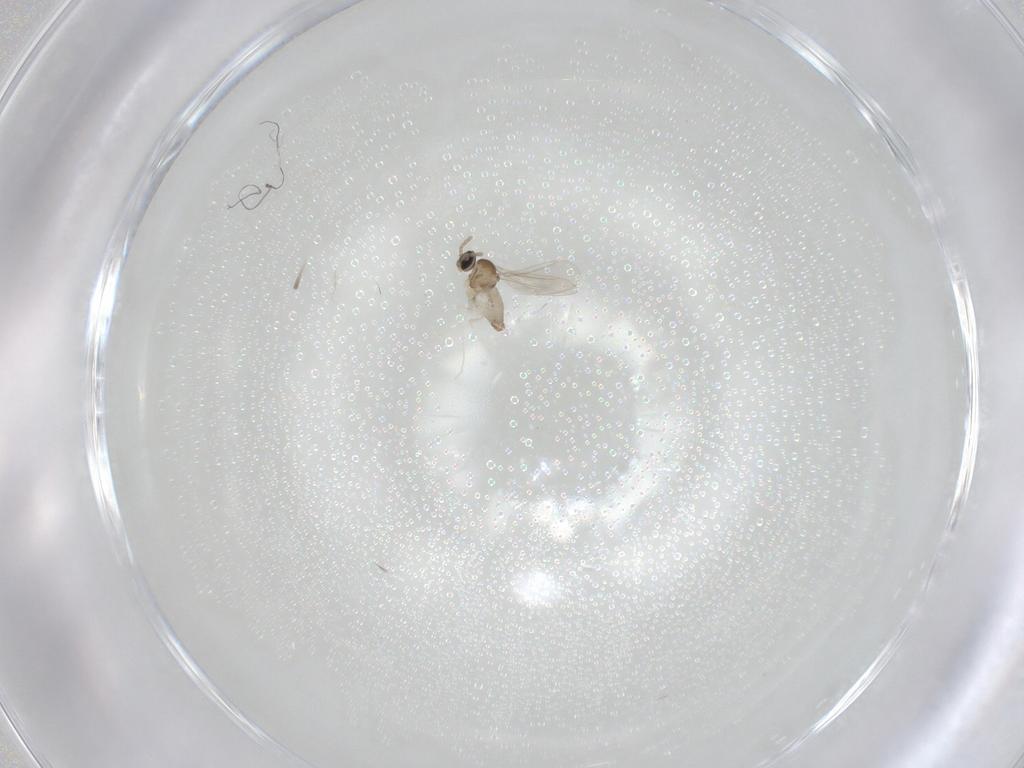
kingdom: Animalia
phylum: Arthropoda
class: Insecta
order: Diptera
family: Cecidomyiidae
